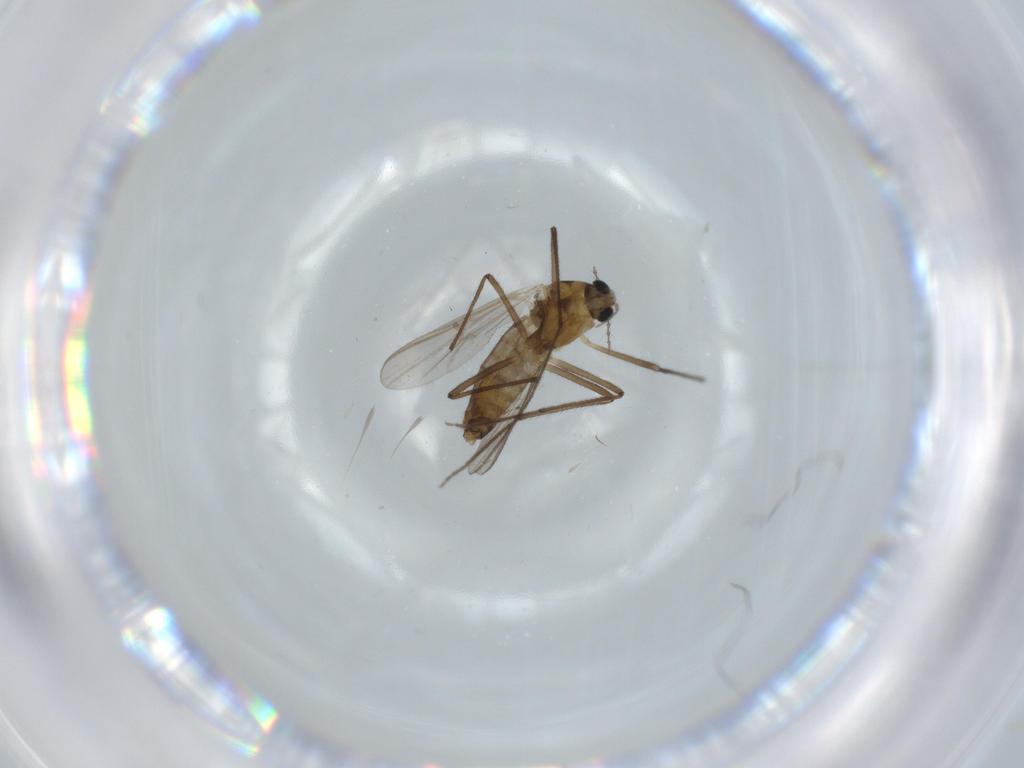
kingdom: Animalia
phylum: Arthropoda
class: Insecta
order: Diptera
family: Chironomidae
